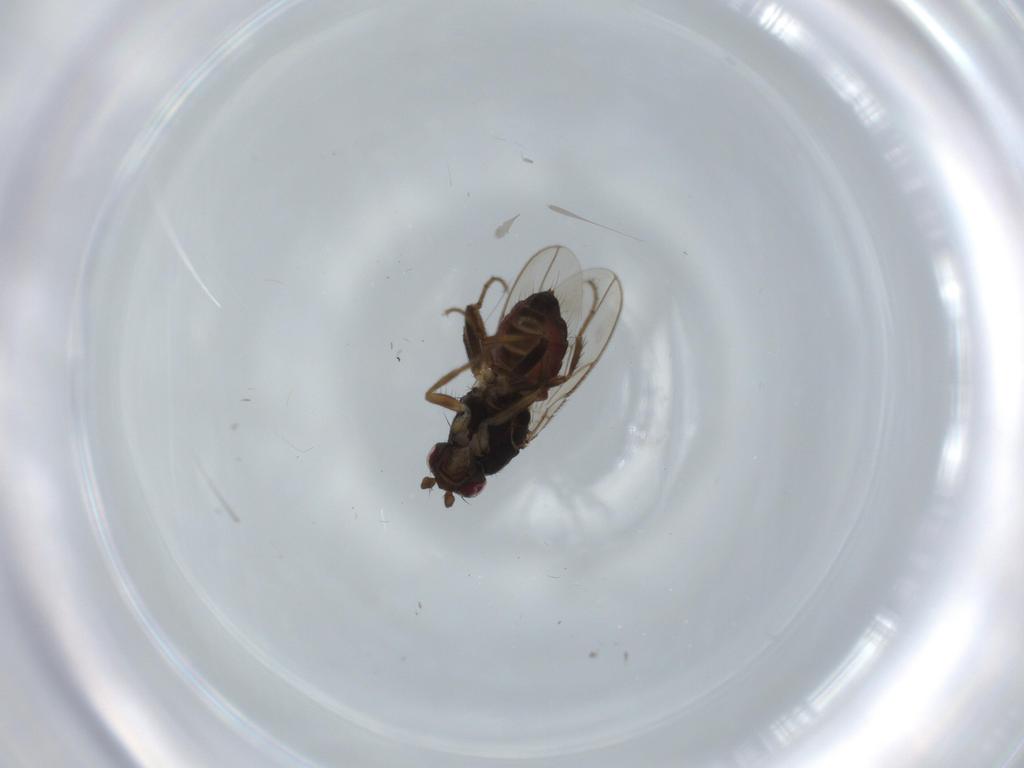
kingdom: Animalia
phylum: Arthropoda
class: Insecta
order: Diptera
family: Sphaeroceridae
